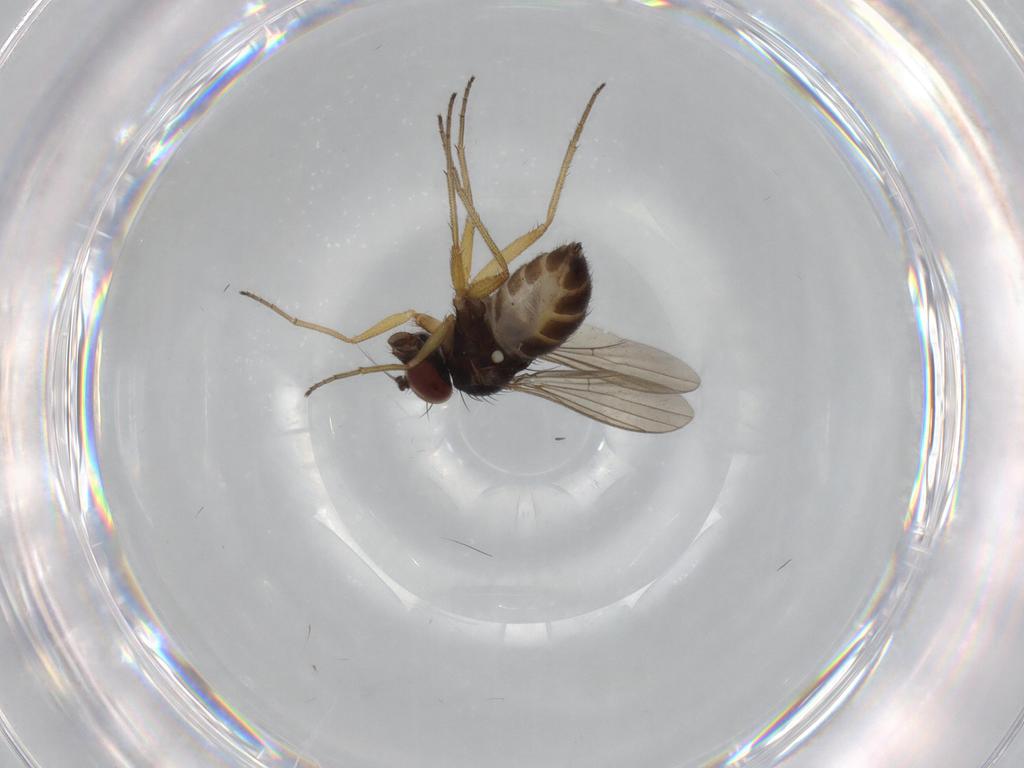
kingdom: Animalia
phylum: Arthropoda
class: Insecta
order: Diptera
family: Dolichopodidae
